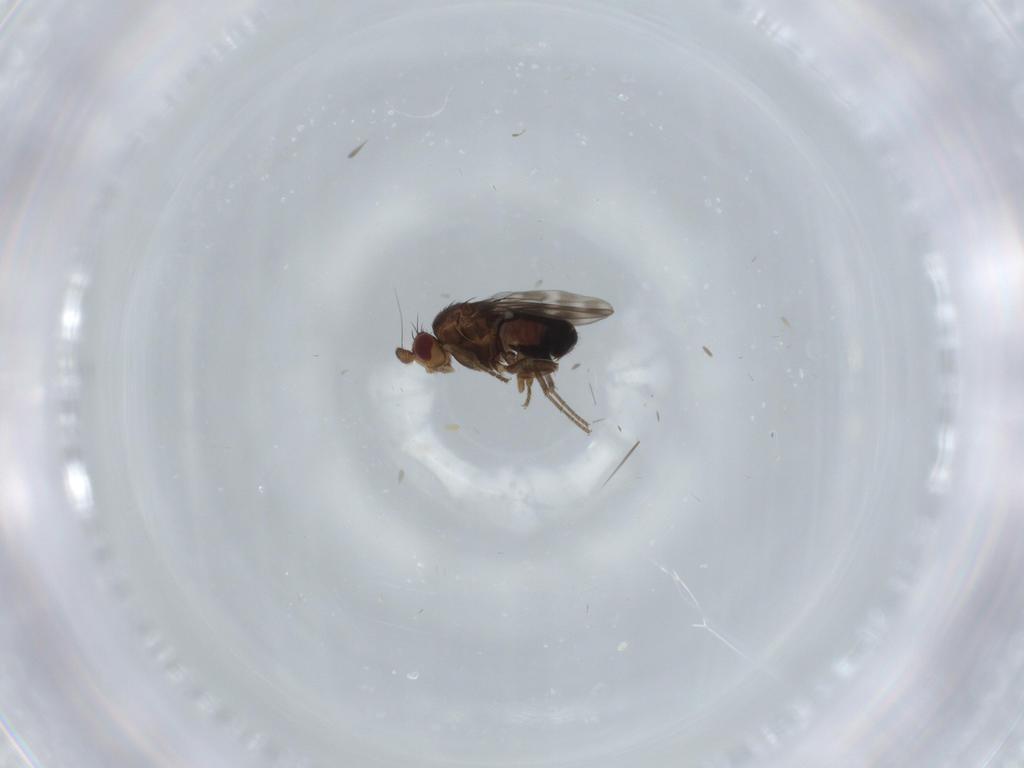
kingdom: Animalia
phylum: Arthropoda
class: Insecta
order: Diptera
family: Sphaeroceridae
